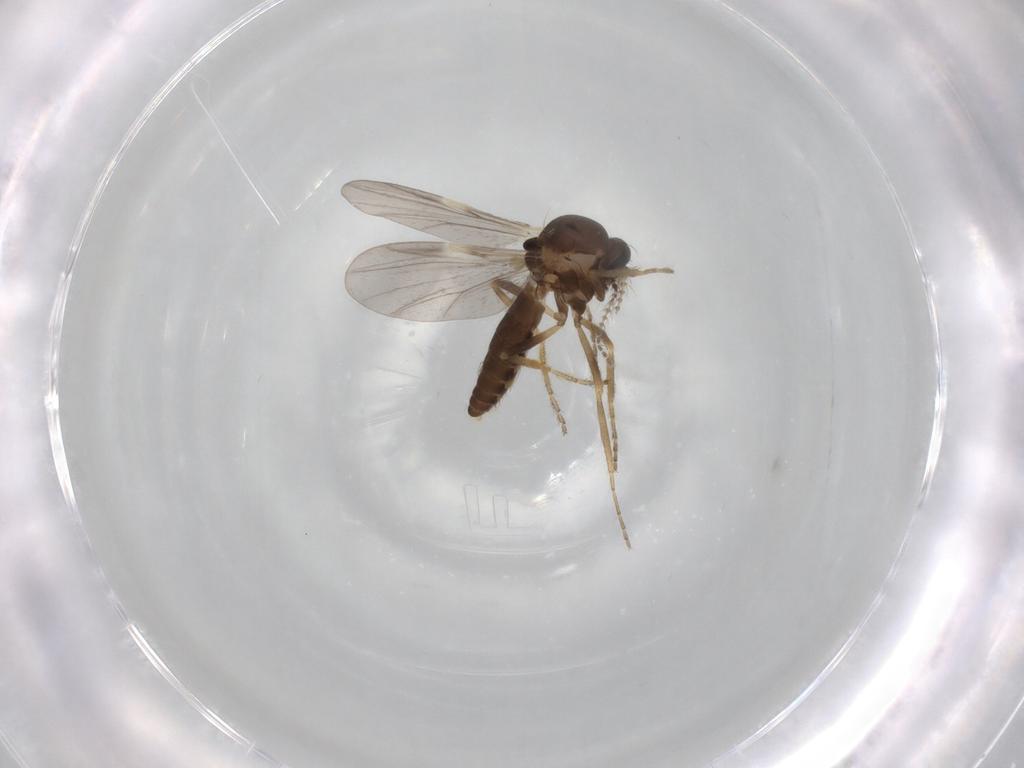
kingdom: Animalia
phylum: Arthropoda
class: Insecta
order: Diptera
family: Ceratopogonidae
